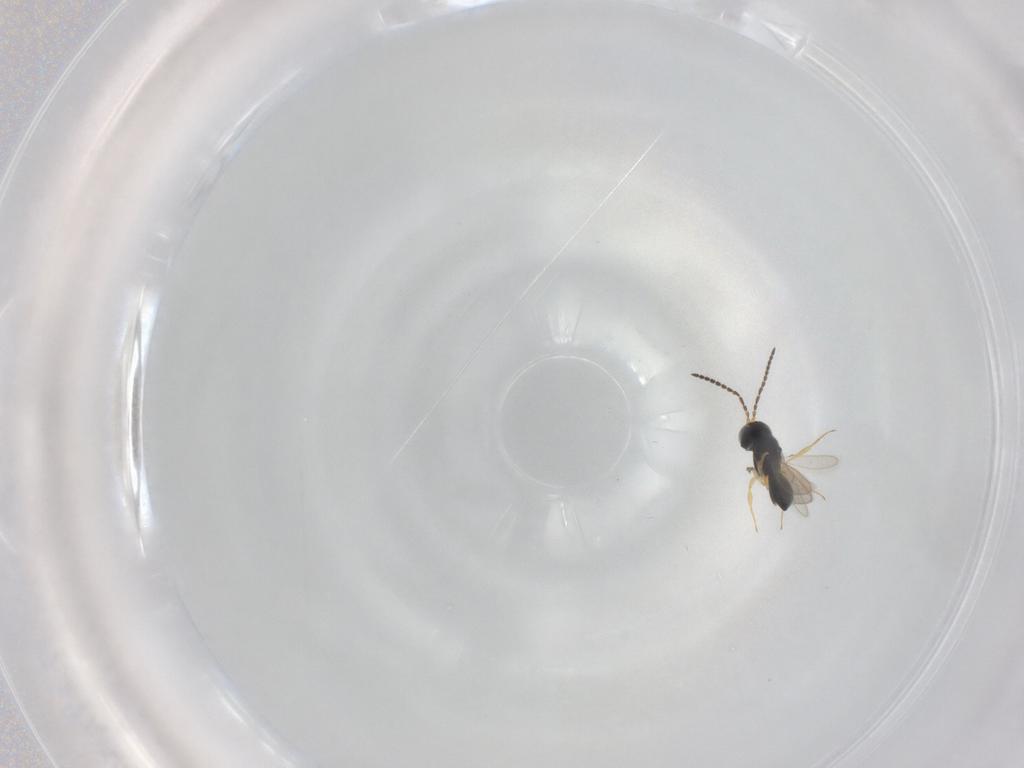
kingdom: Animalia
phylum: Arthropoda
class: Insecta
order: Hymenoptera
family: Scelionidae
